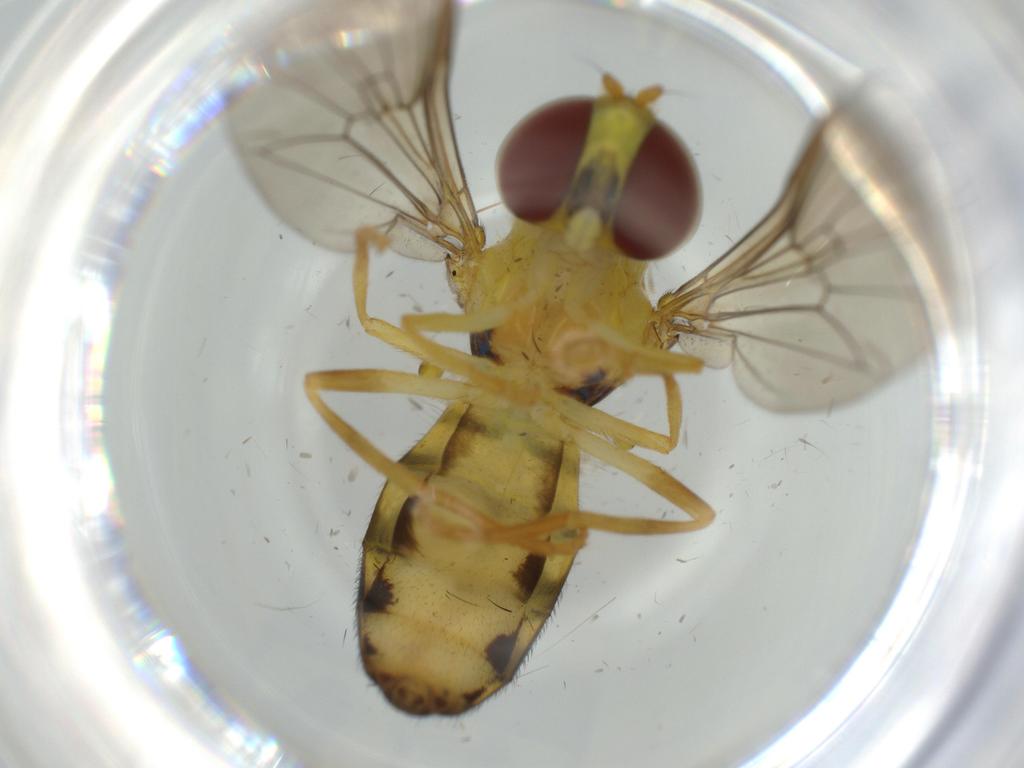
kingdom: Animalia
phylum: Arthropoda
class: Insecta
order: Diptera
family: Syrphidae
